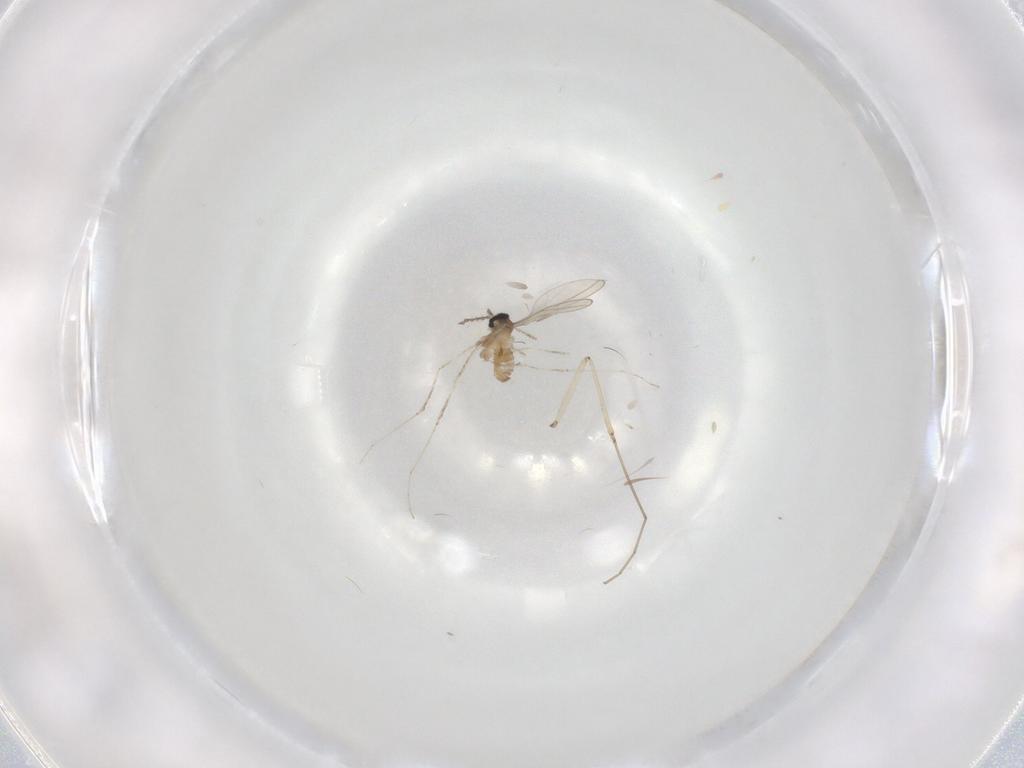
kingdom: Animalia
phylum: Arthropoda
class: Insecta
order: Diptera
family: Cecidomyiidae
